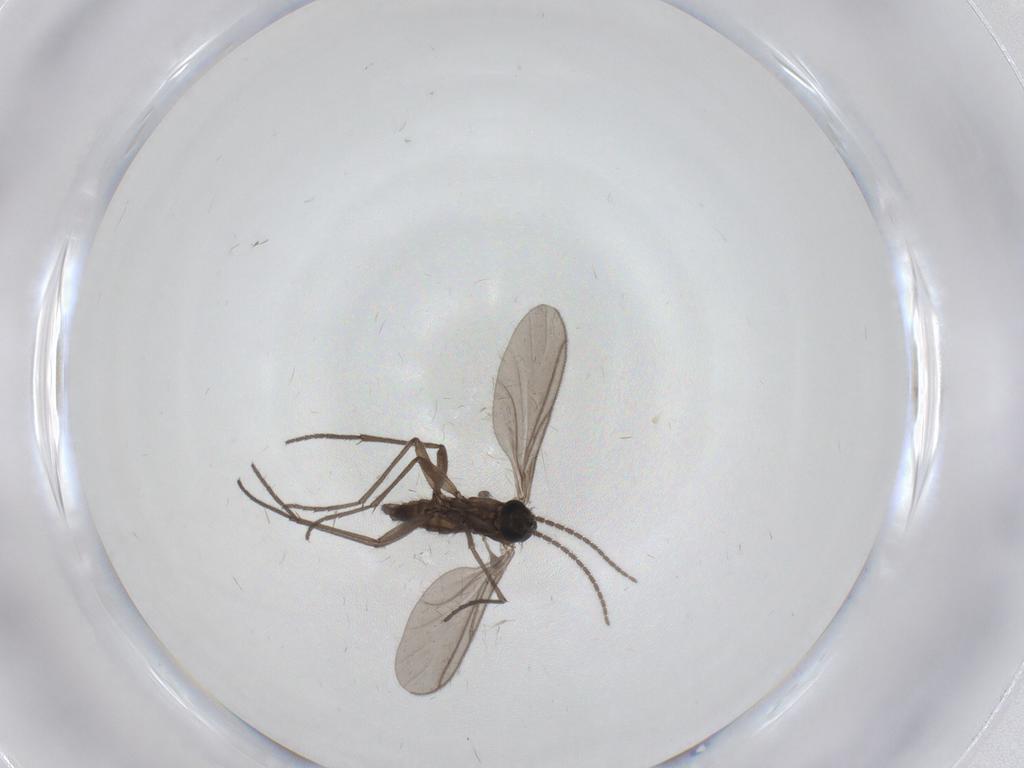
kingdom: Animalia
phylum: Arthropoda
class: Insecta
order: Diptera
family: Sciaridae
